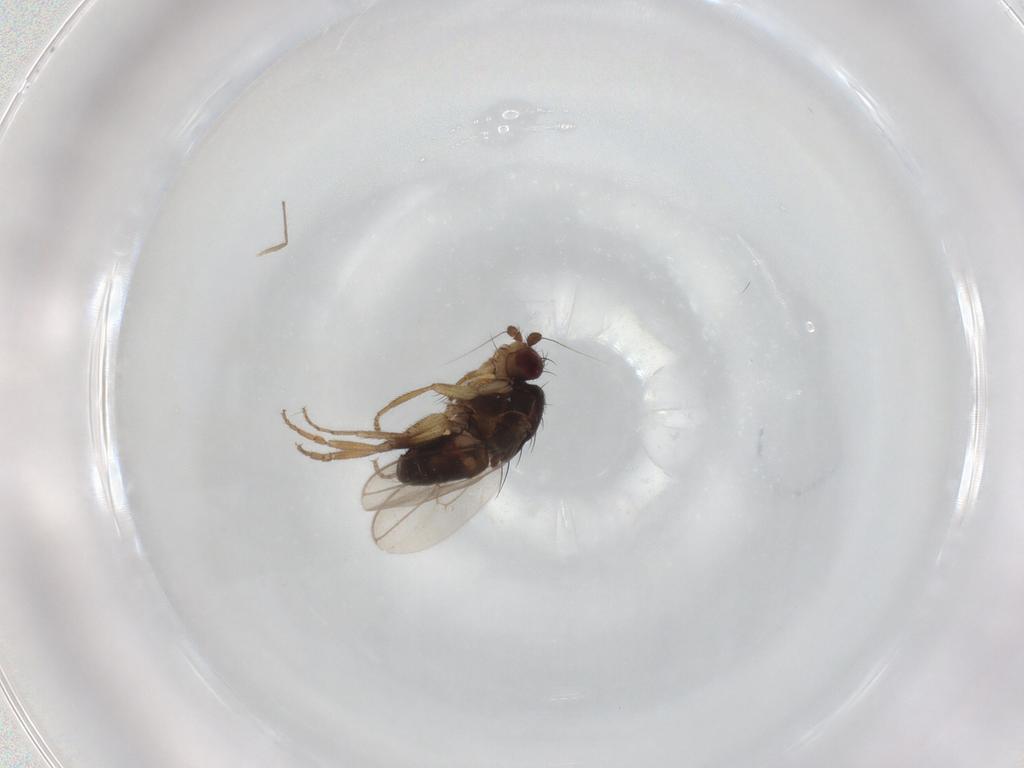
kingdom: Animalia
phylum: Arthropoda
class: Insecta
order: Diptera
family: Sphaeroceridae
